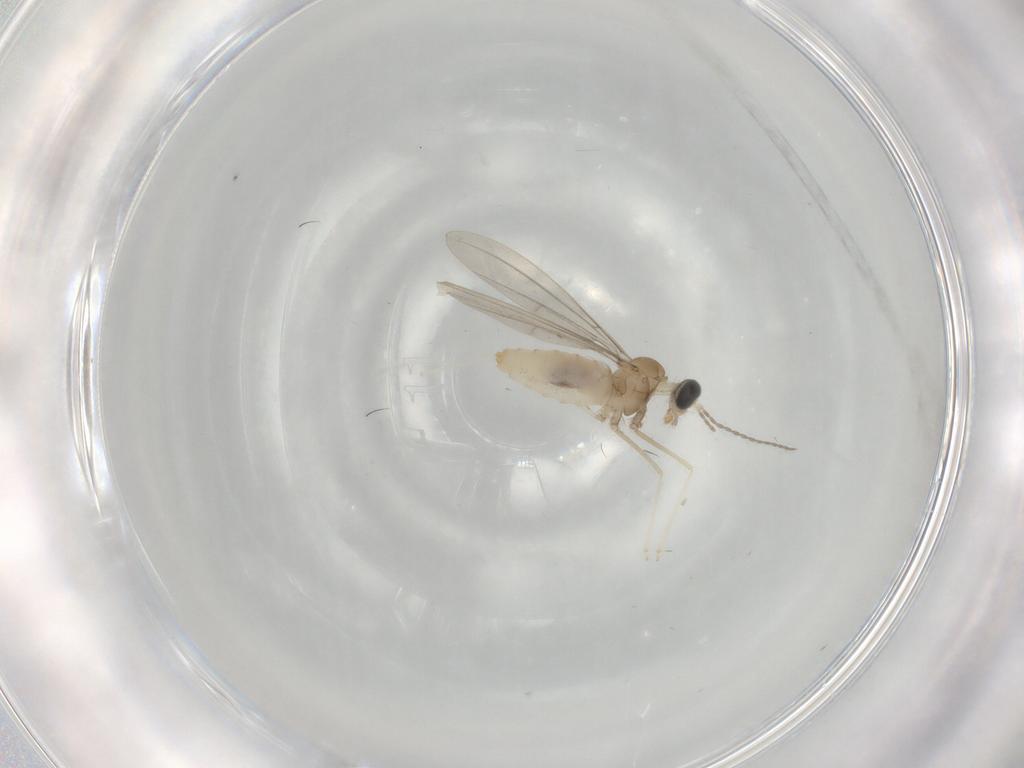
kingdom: Animalia
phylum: Arthropoda
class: Insecta
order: Diptera
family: Cecidomyiidae
